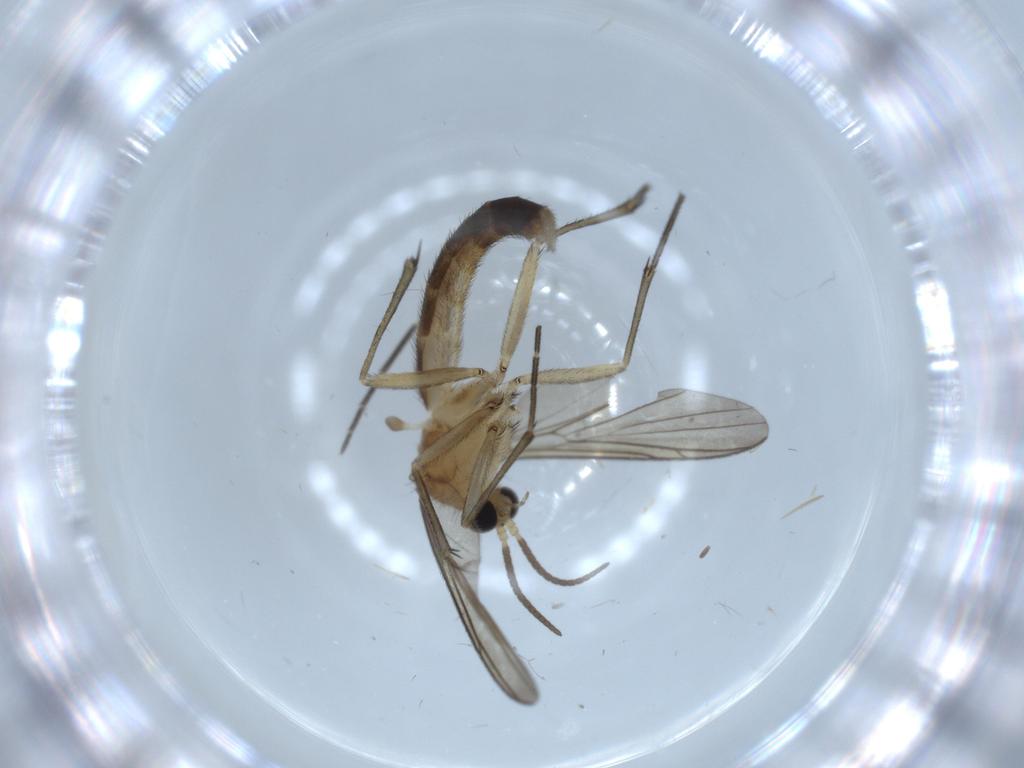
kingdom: Animalia
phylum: Arthropoda
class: Insecta
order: Diptera
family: Keroplatidae
